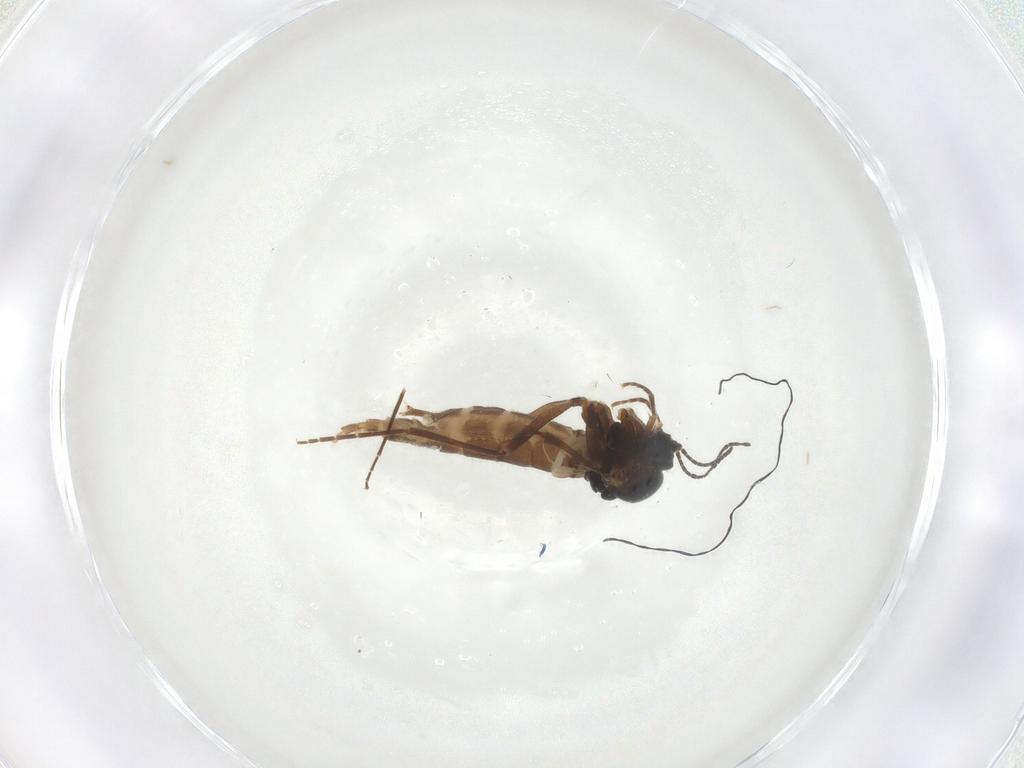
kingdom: Animalia
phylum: Arthropoda
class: Insecta
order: Diptera
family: Sciaridae
